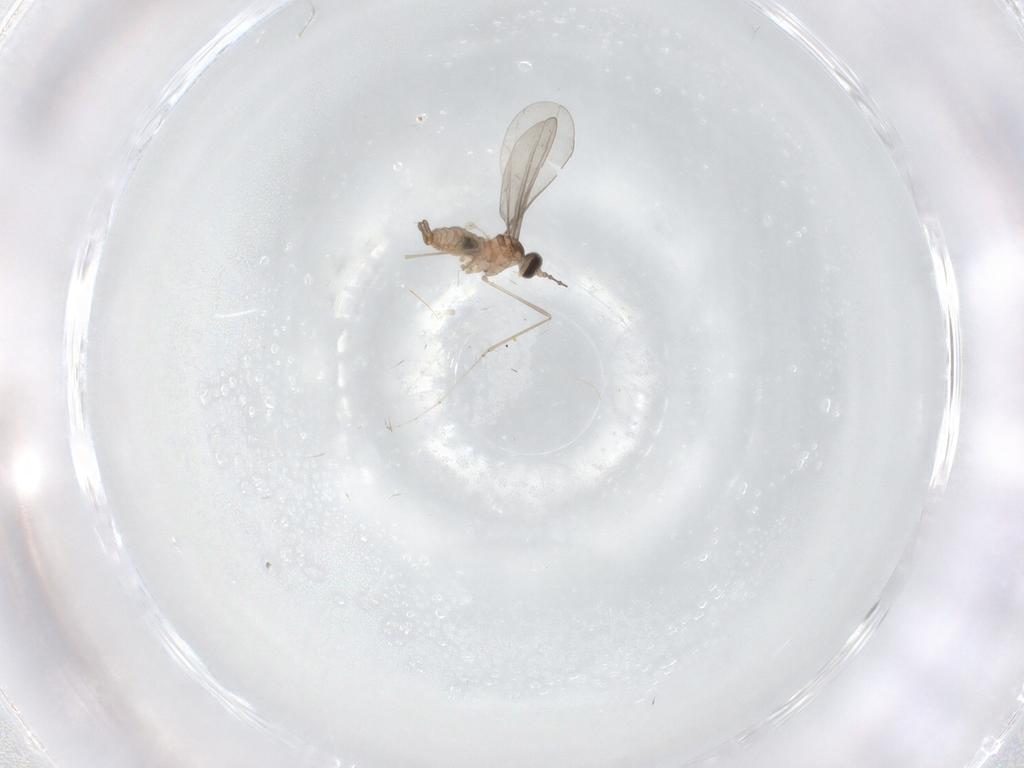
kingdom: Animalia
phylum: Arthropoda
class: Insecta
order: Diptera
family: Cecidomyiidae
